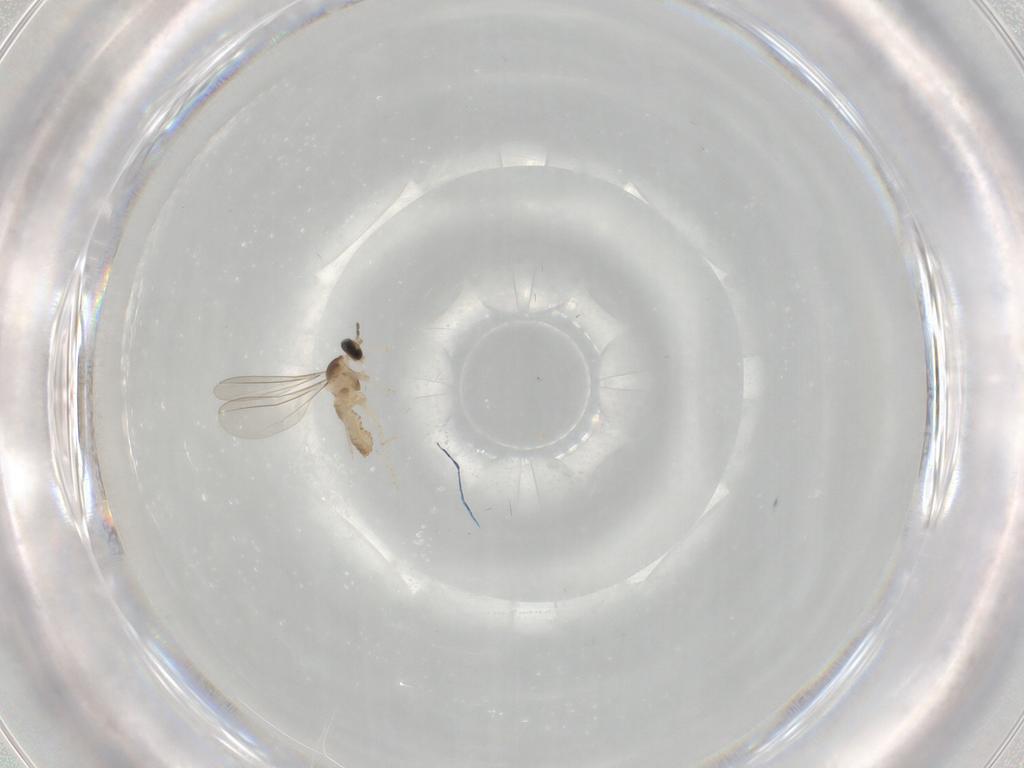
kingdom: Animalia
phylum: Arthropoda
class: Insecta
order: Diptera
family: Cecidomyiidae
